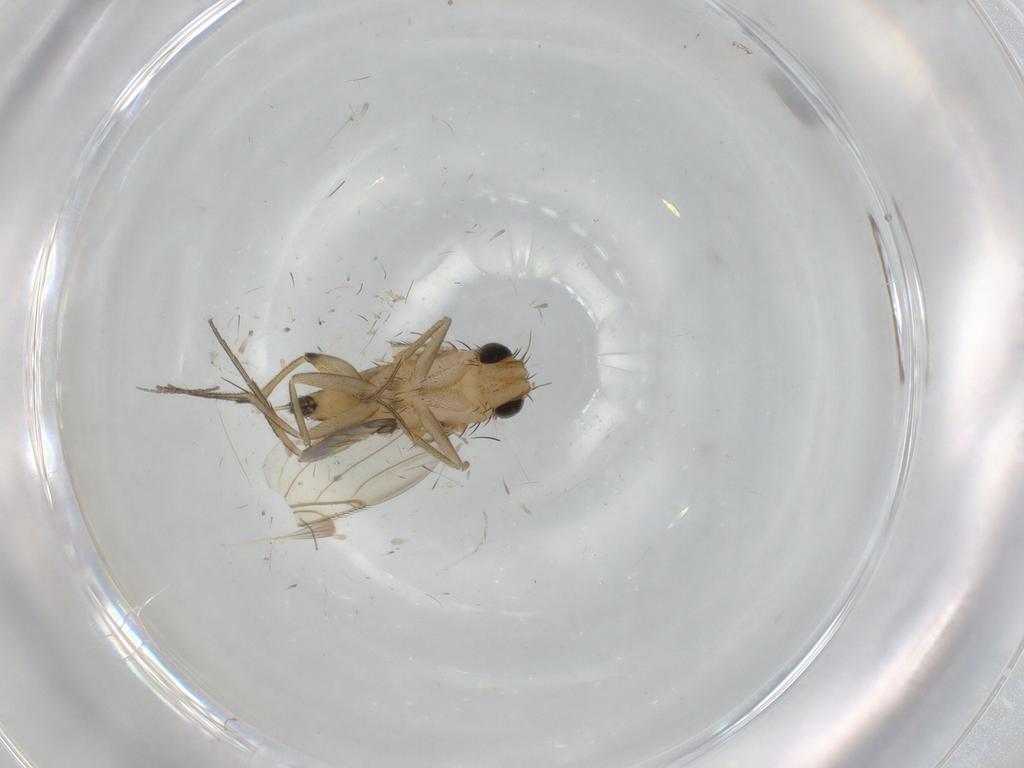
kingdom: Animalia
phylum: Arthropoda
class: Insecta
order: Diptera
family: Phoridae
